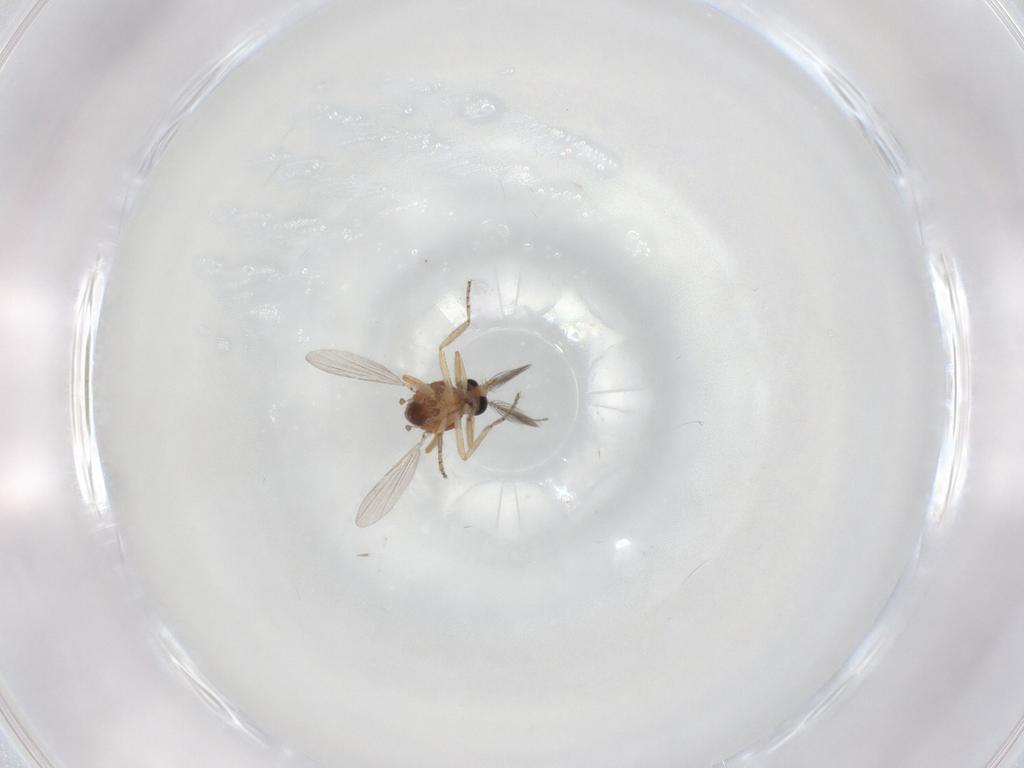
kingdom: Animalia
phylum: Arthropoda
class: Insecta
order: Diptera
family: Ceratopogonidae
